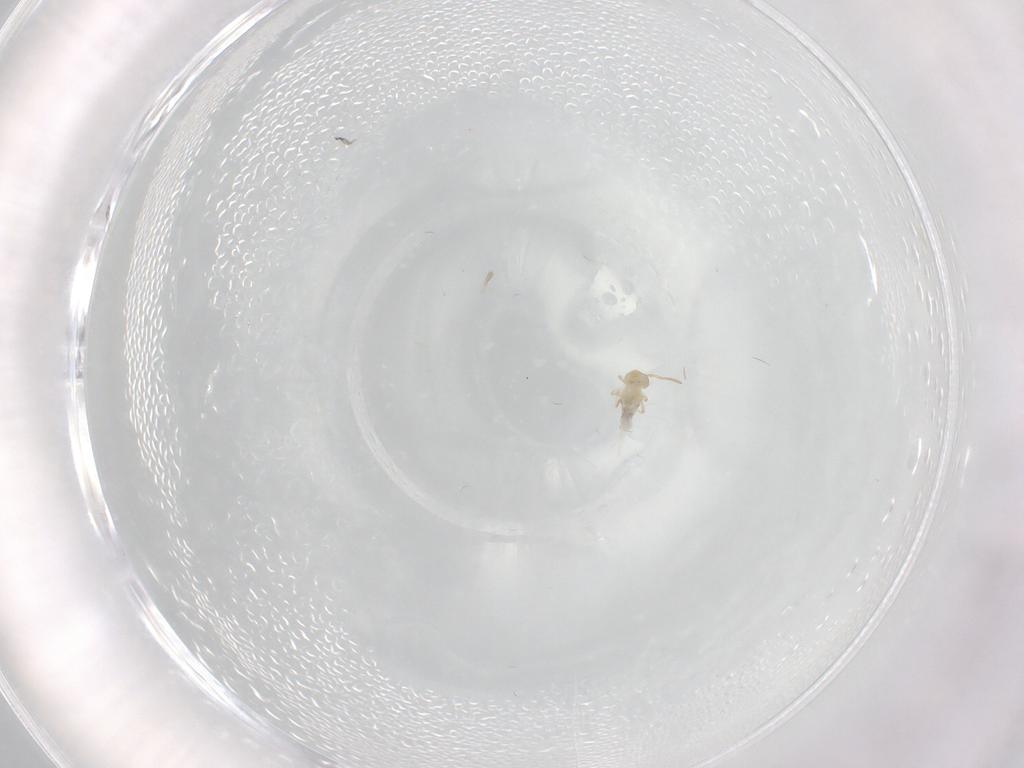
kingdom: Animalia
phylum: Arthropoda
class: Collembola
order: Symphypleona
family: Bourletiellidae
